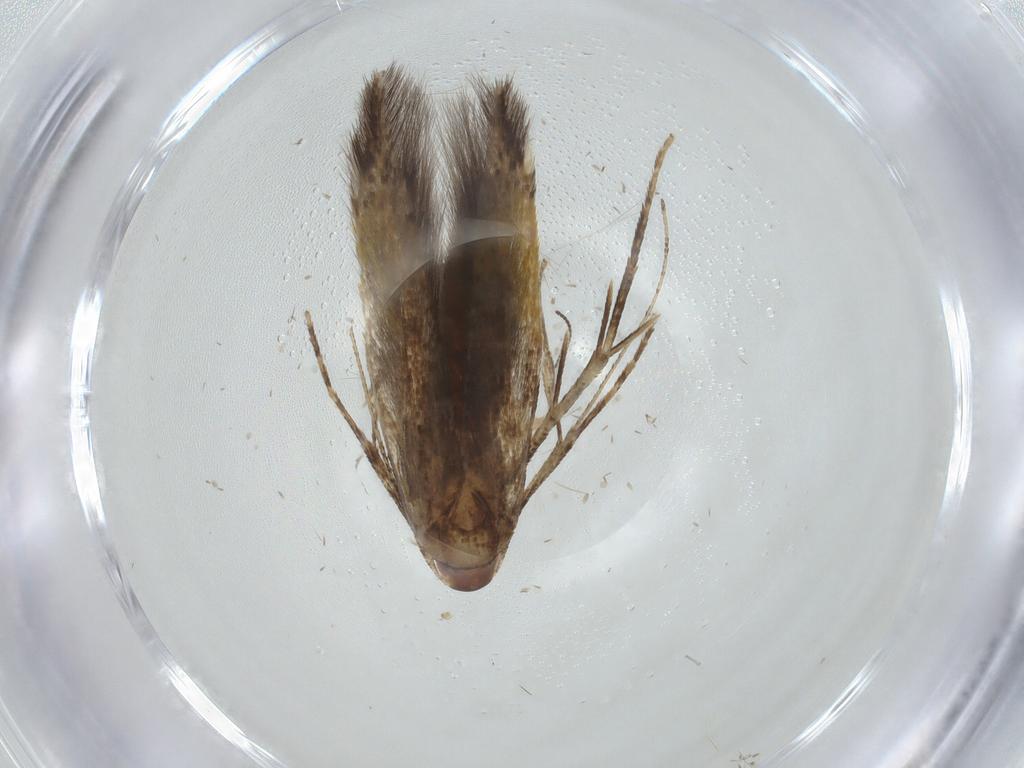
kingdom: Animalia
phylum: Arthropoda
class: Insecta
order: Lepidoptera
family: Cosmopterigidae
